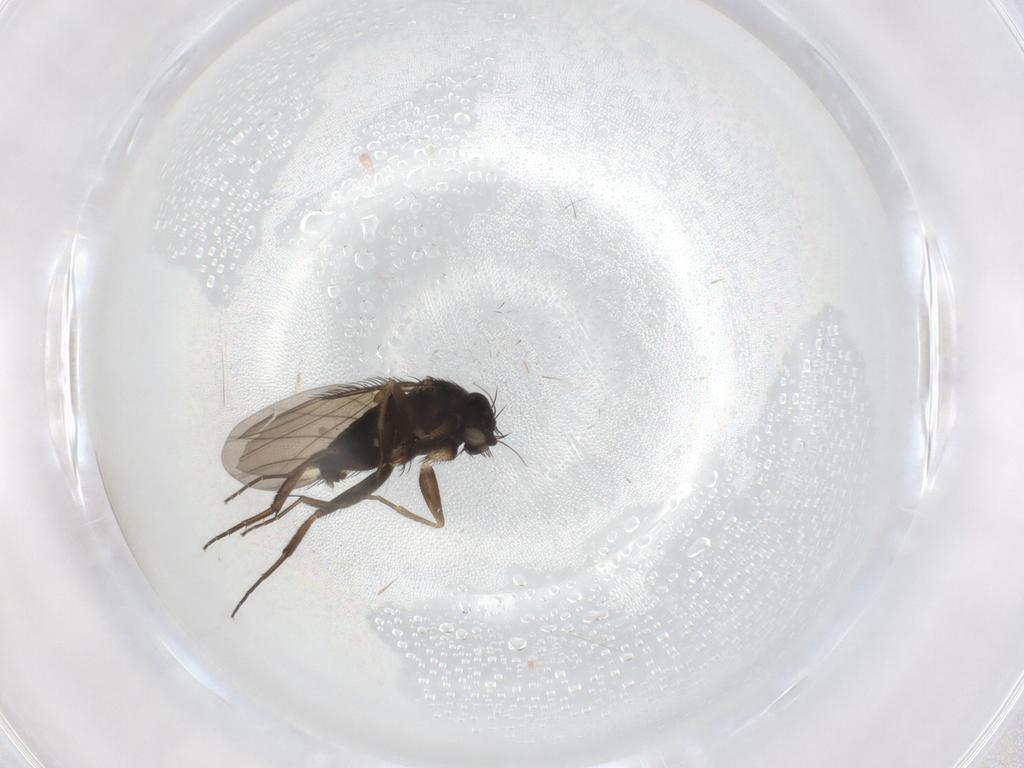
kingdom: Animalia
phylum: Arthropoda
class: Insecta
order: Diptera
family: Phoridae
